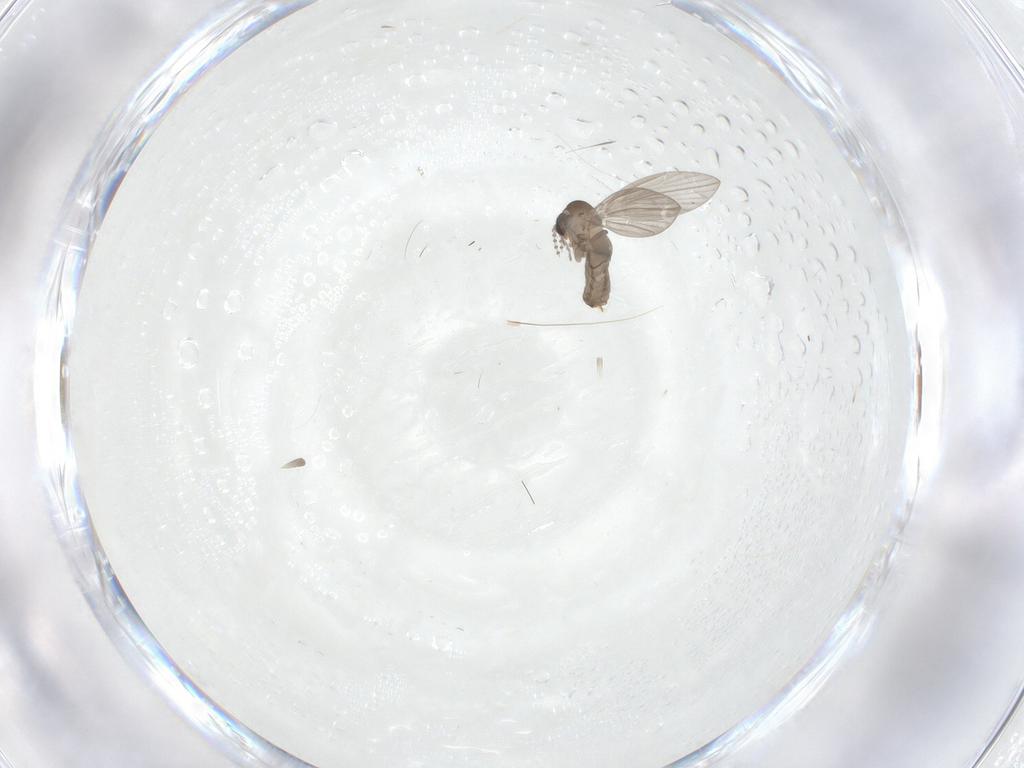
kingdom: Animalia
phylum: Arthropoda
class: Insecta
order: Diptera
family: Psychodidae
